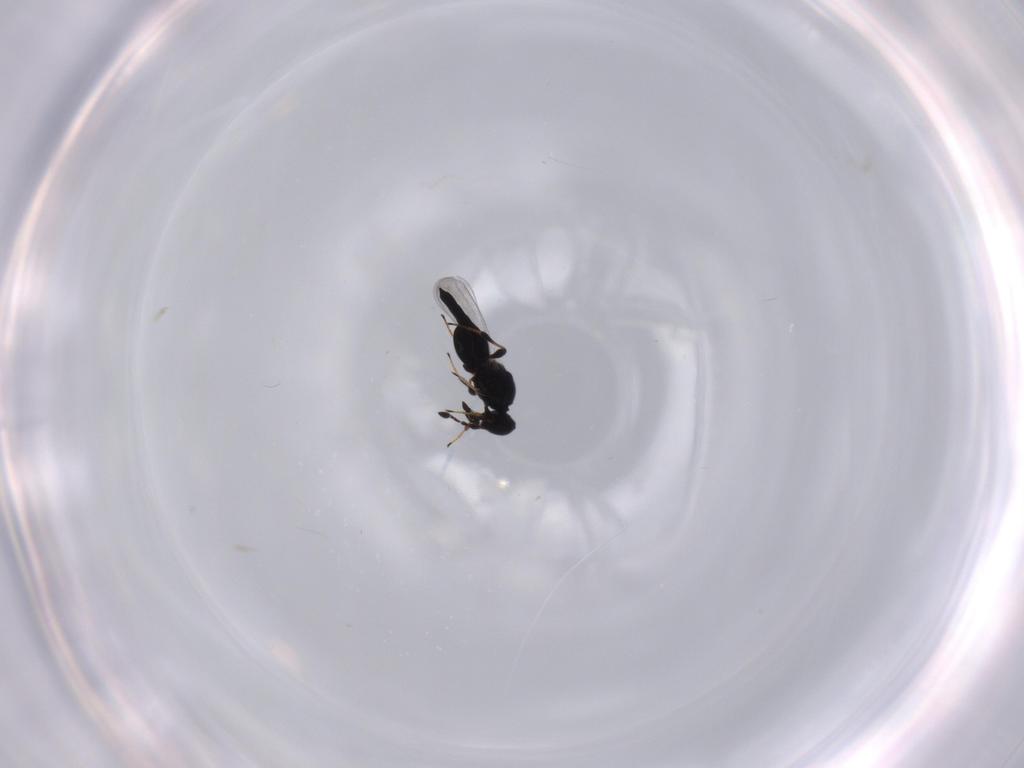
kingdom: Animalia
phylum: Arthropoda
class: Insecta
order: Hymenoptera
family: Platygastridae
